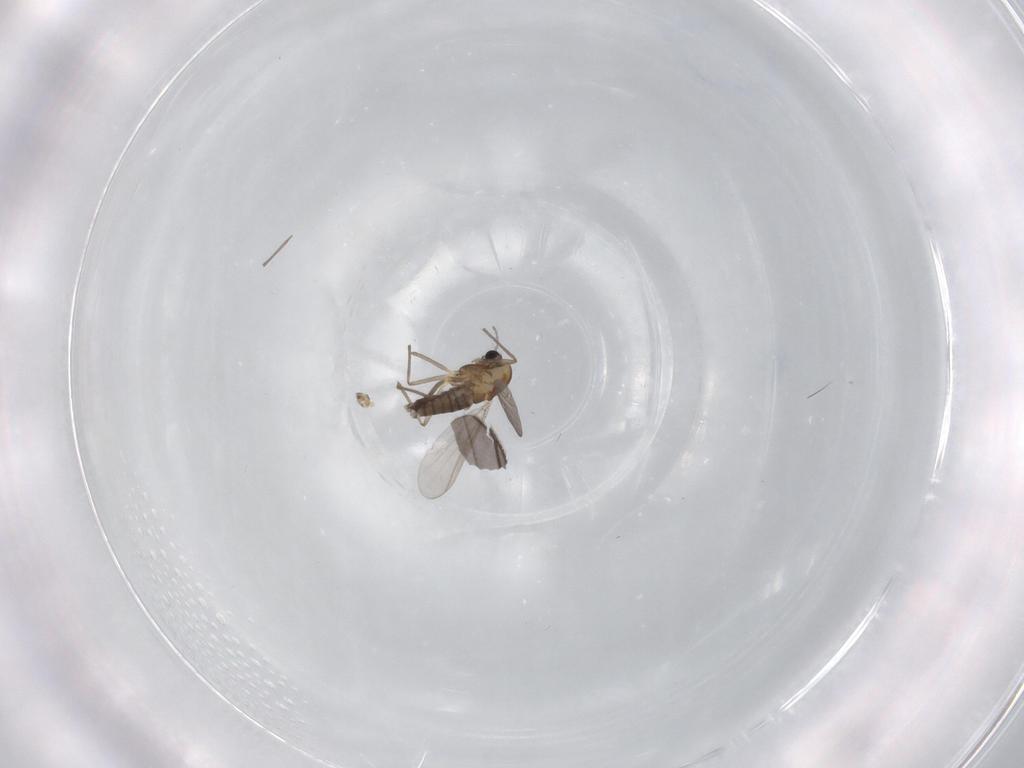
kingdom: Animalia
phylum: Arthropoda
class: Insecta
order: Diptera
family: Chironomidae
